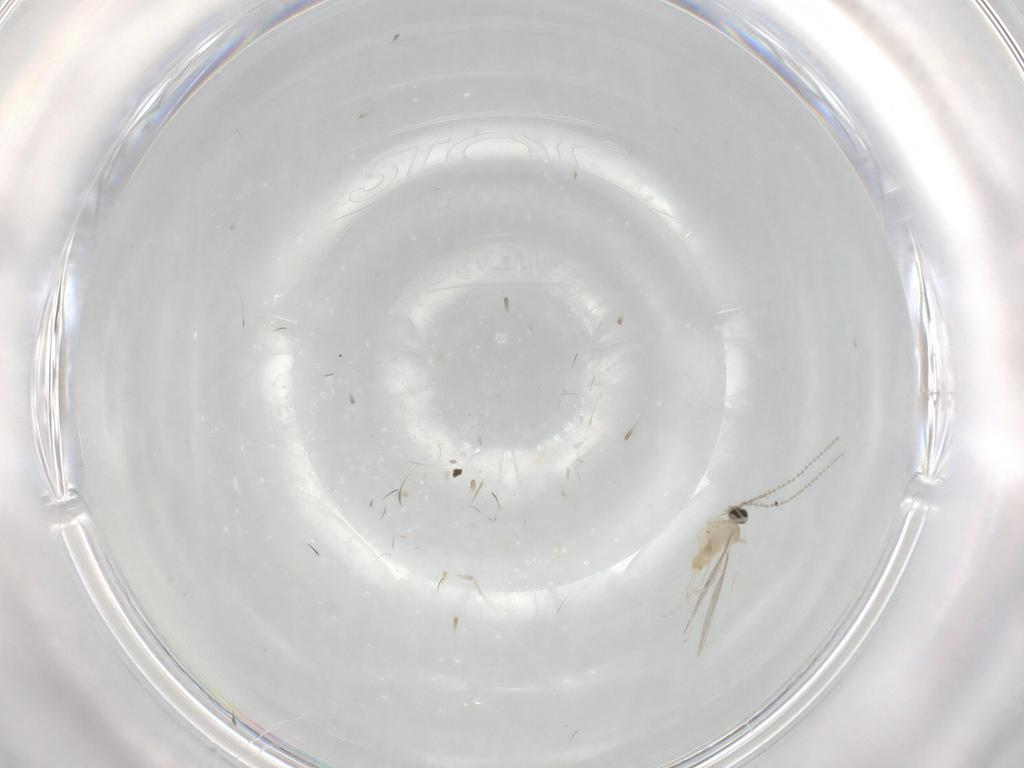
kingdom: Animalia
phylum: Arthropoda
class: Insecta
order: Diptera
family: Cecidomyiidae
